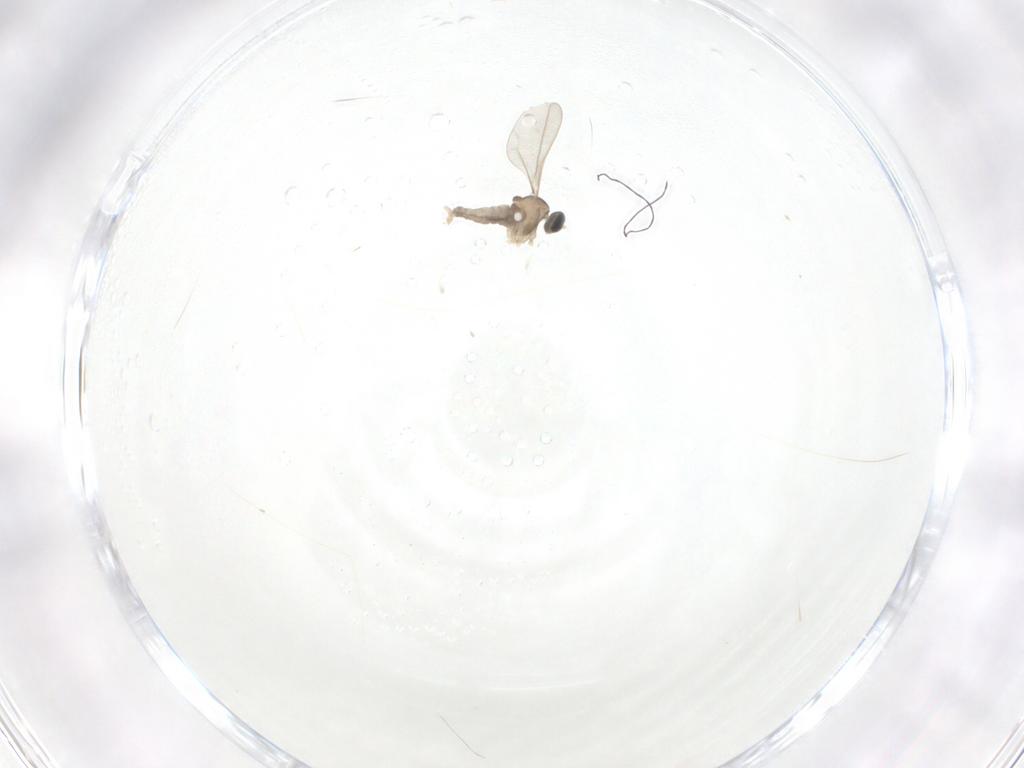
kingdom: Animalia
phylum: Arthropoda
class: Insecta
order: Diptera
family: Cecidomyiidae
